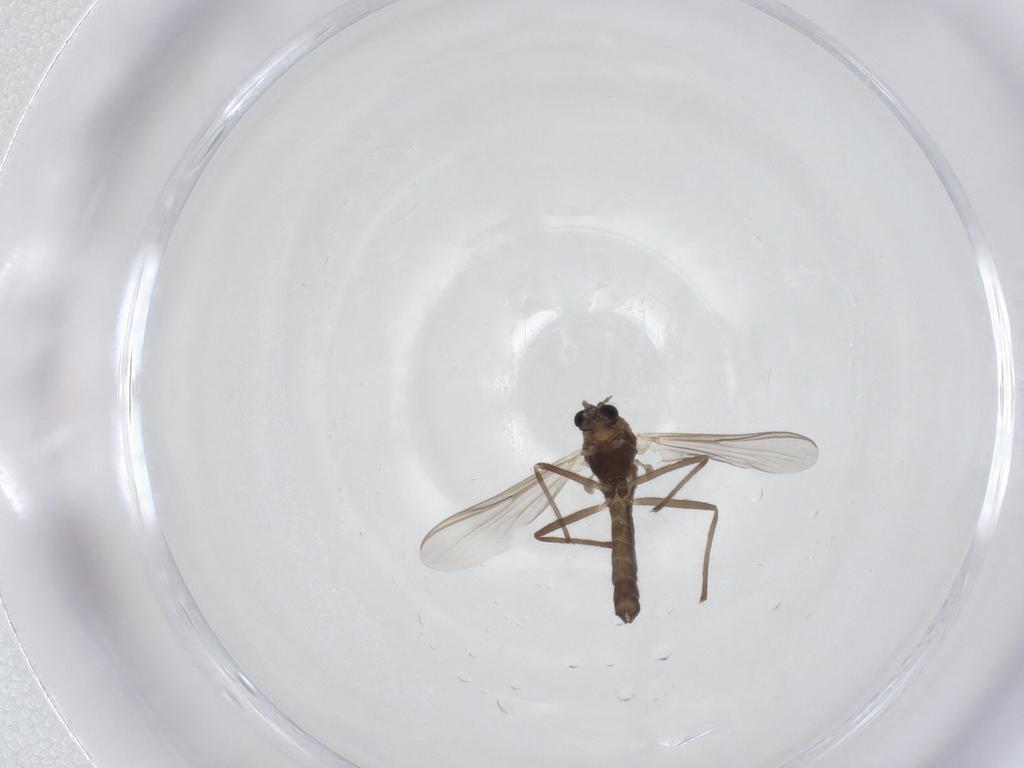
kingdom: Animalia
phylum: Arthropoda
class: Insecta
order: Diptera
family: Chironomidae
